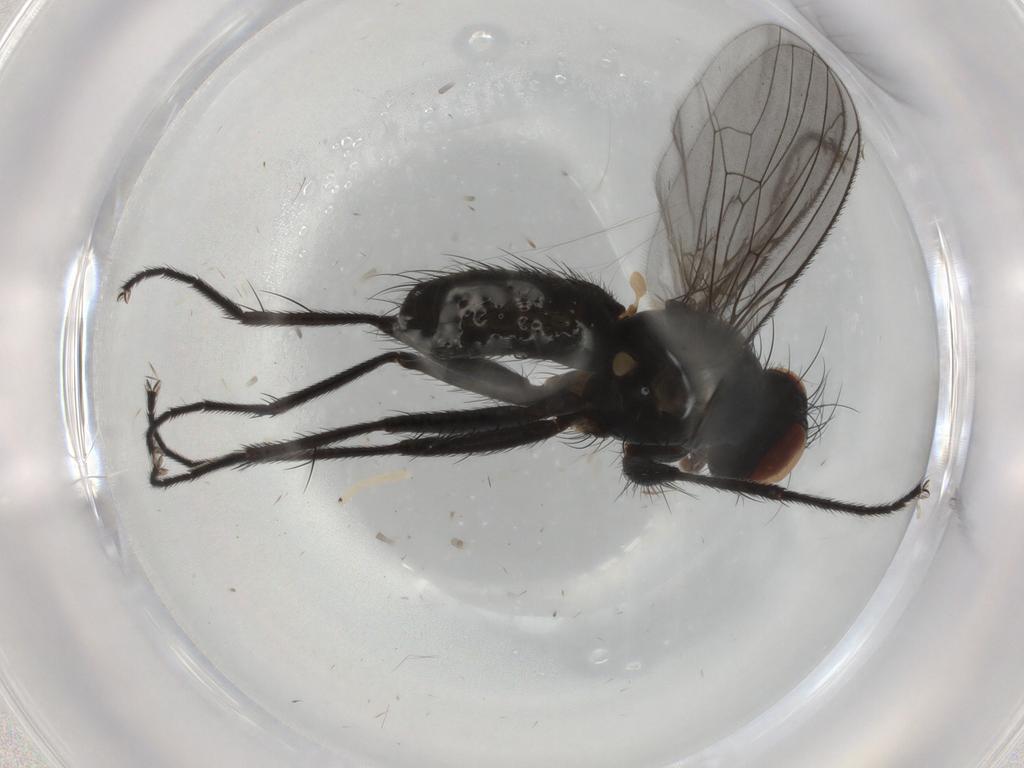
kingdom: Animalia
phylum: Arthropoda
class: Insecta
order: Diptera
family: Muscidae
